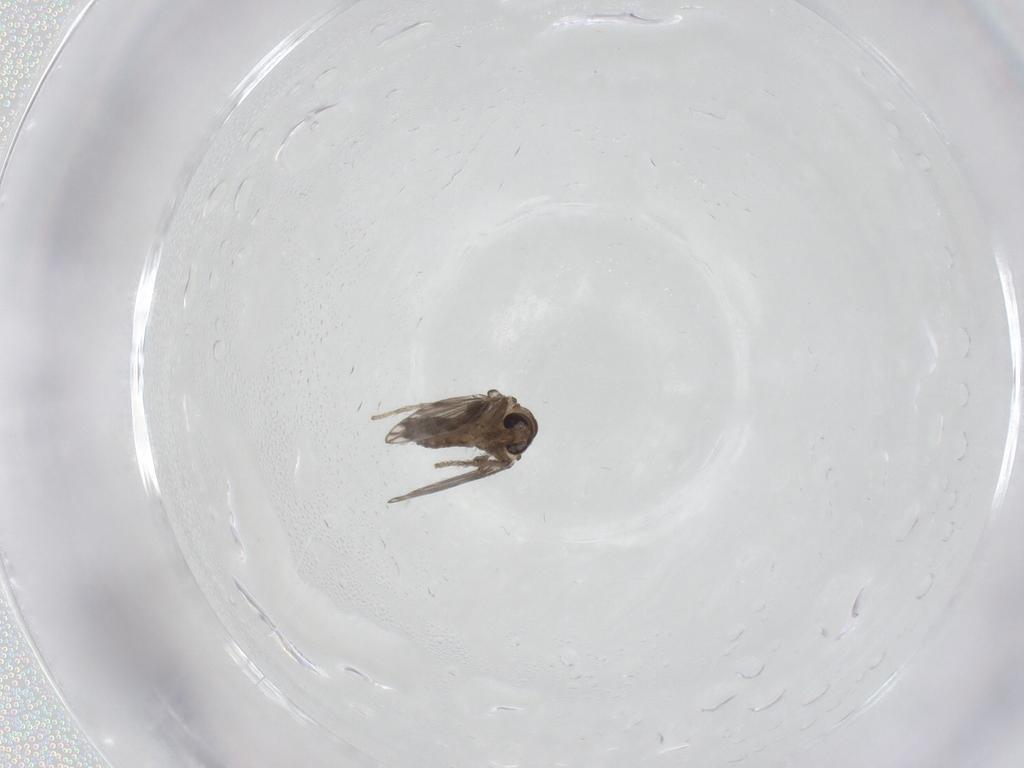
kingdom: Animalia
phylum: Arthropoda
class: Insecta
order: Diptera
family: Psychodidae
